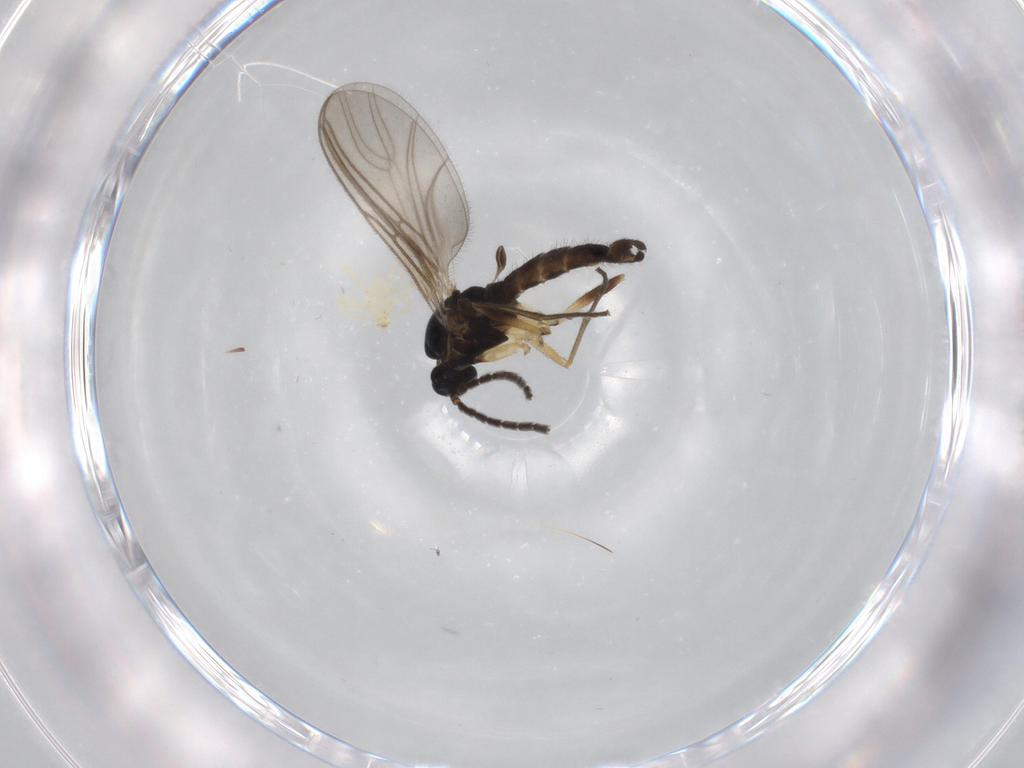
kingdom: Animalia
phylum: Arthropoda
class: Insecta
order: Diptera
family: Sciaridae
